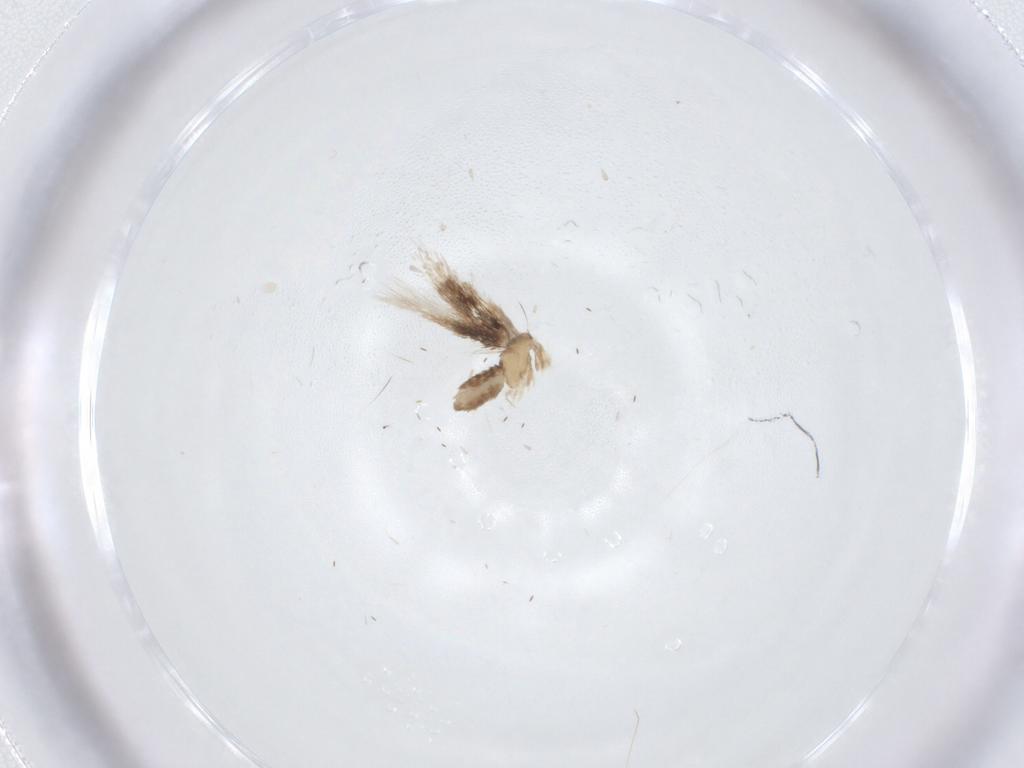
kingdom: Animalia
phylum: Arthropoda
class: Insecta
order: Lepidoptera
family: Nepticulidae
